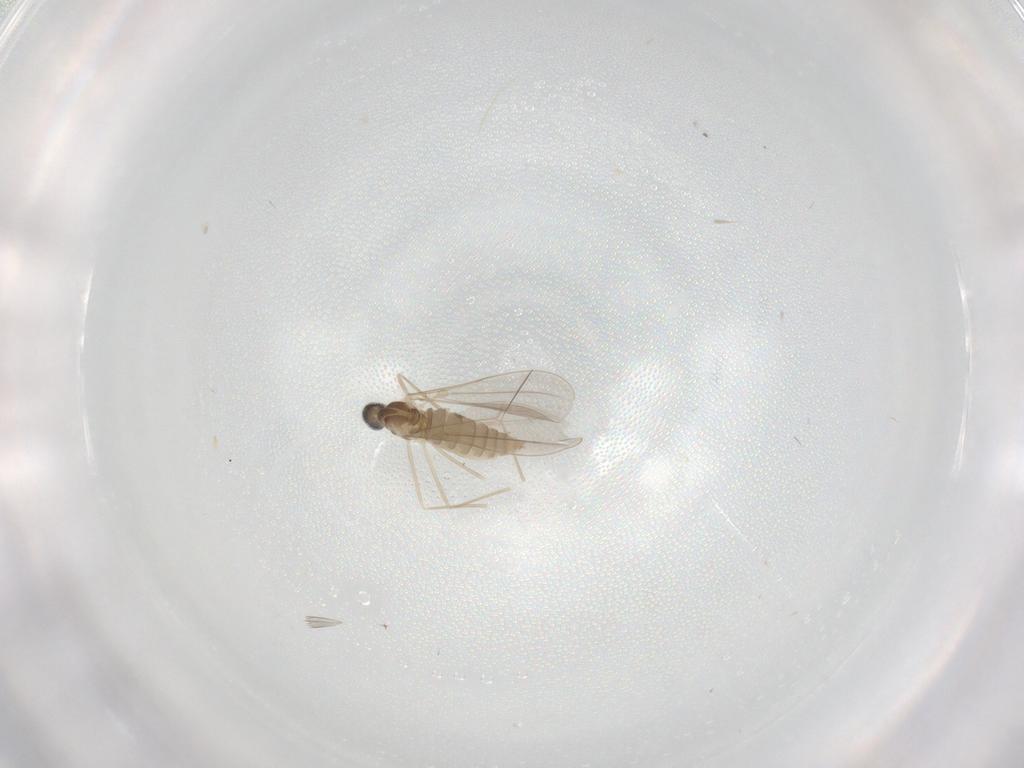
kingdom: Animalia
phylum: Arthropoda
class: Insecta
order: Diptera
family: Cecidomyiidae
